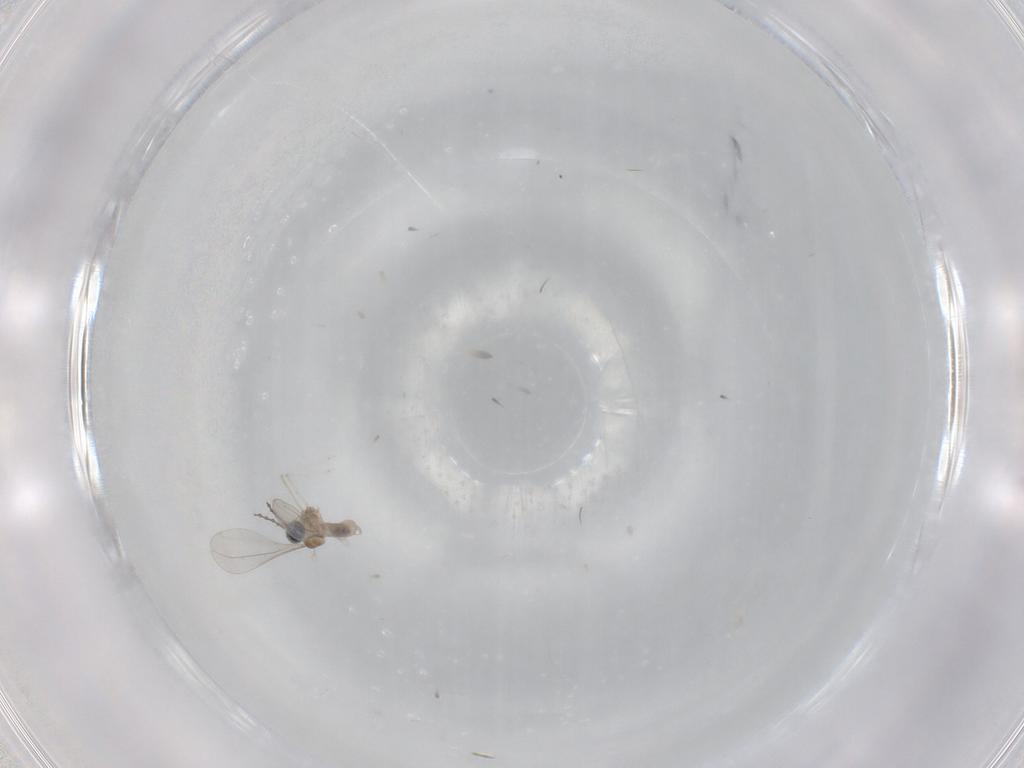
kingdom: Animalia
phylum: Arthropoda
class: Insecta
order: Diptera
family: Cecidomyiidae
